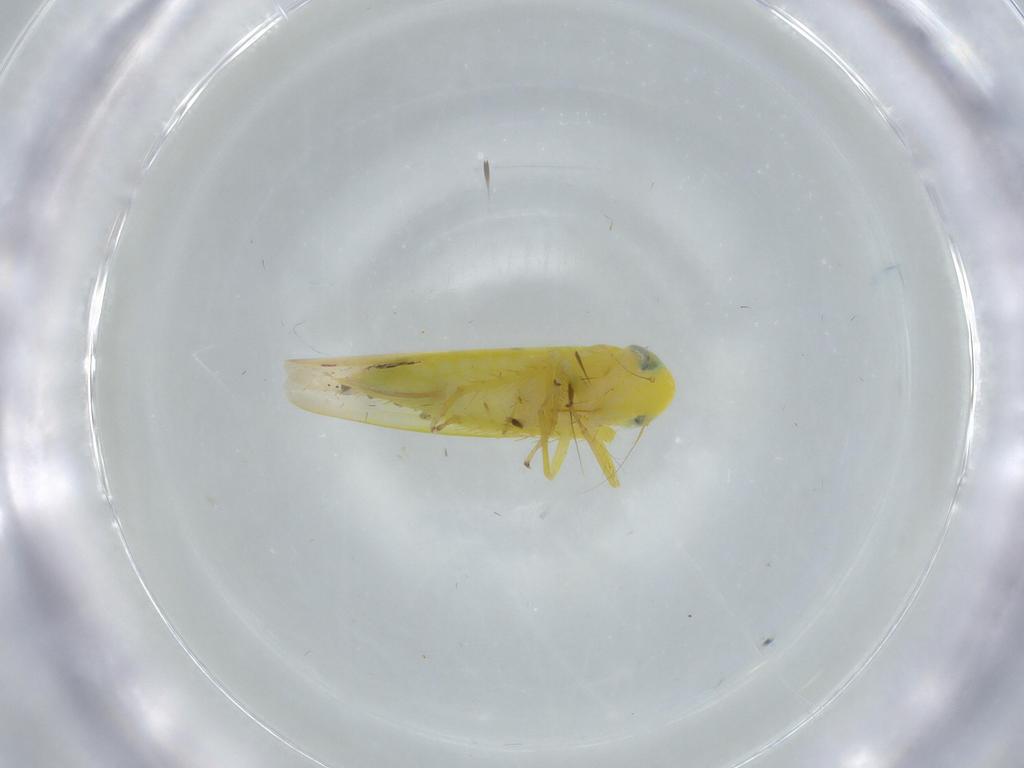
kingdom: Animalia
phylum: Arthropoda
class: Insecta
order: Hemiptera
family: Cicadellidae
